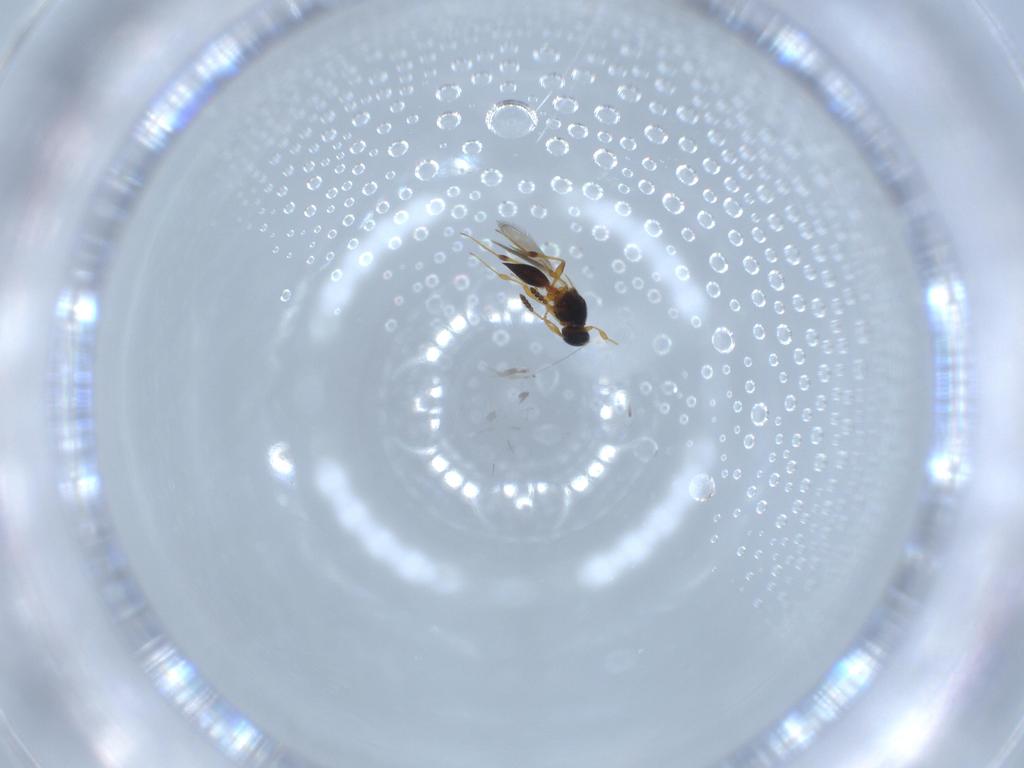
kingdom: Animalia
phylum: Arthropoda
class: Insecta
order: Hymenoptera
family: Platygastridae
